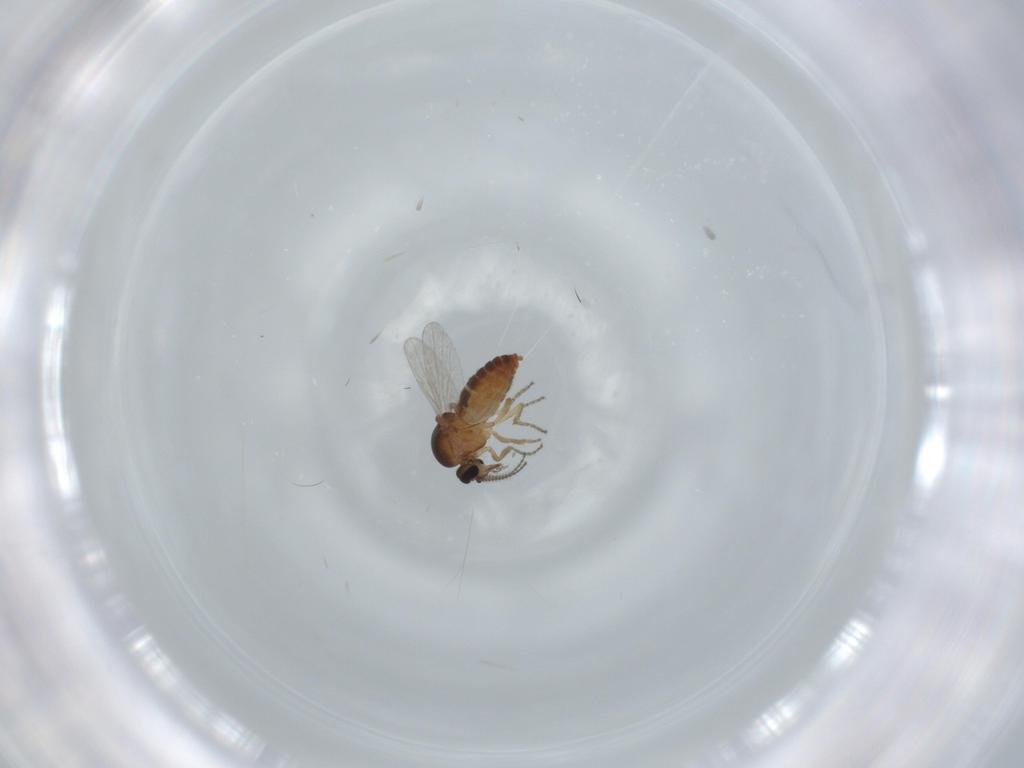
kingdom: Animalia
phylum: Arthropoda
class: Insecta
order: Diptera
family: Ceratopogonidae
